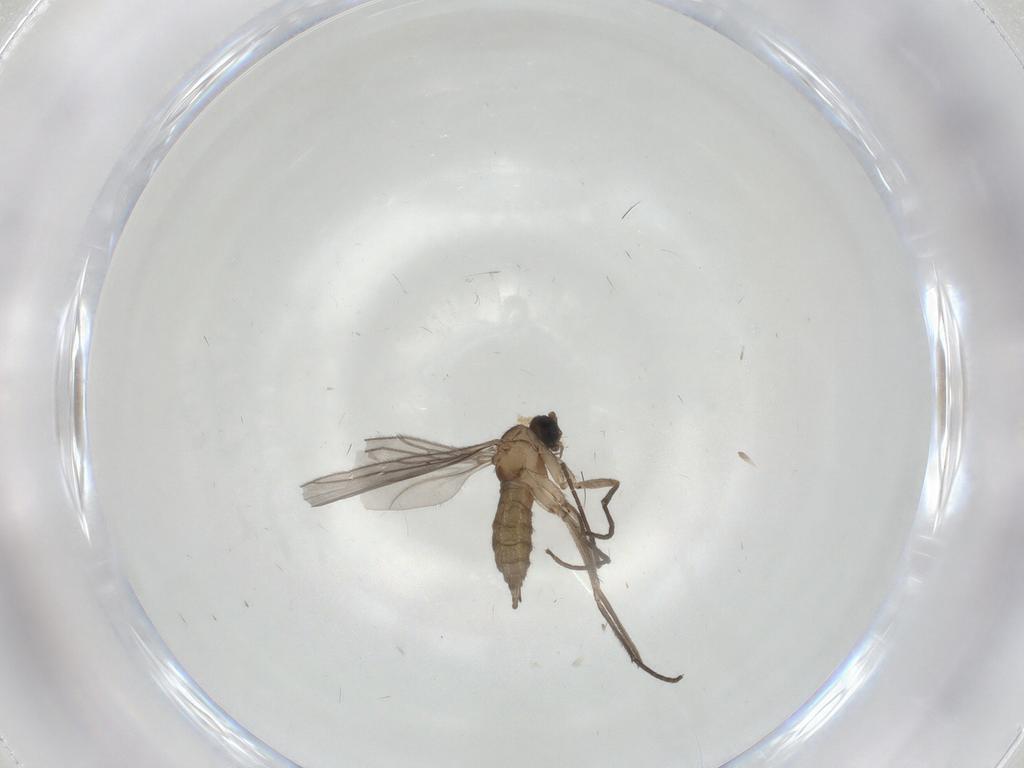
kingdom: Animalia
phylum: Arthropoda
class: Insecta
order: Diptera
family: Sciaridae
